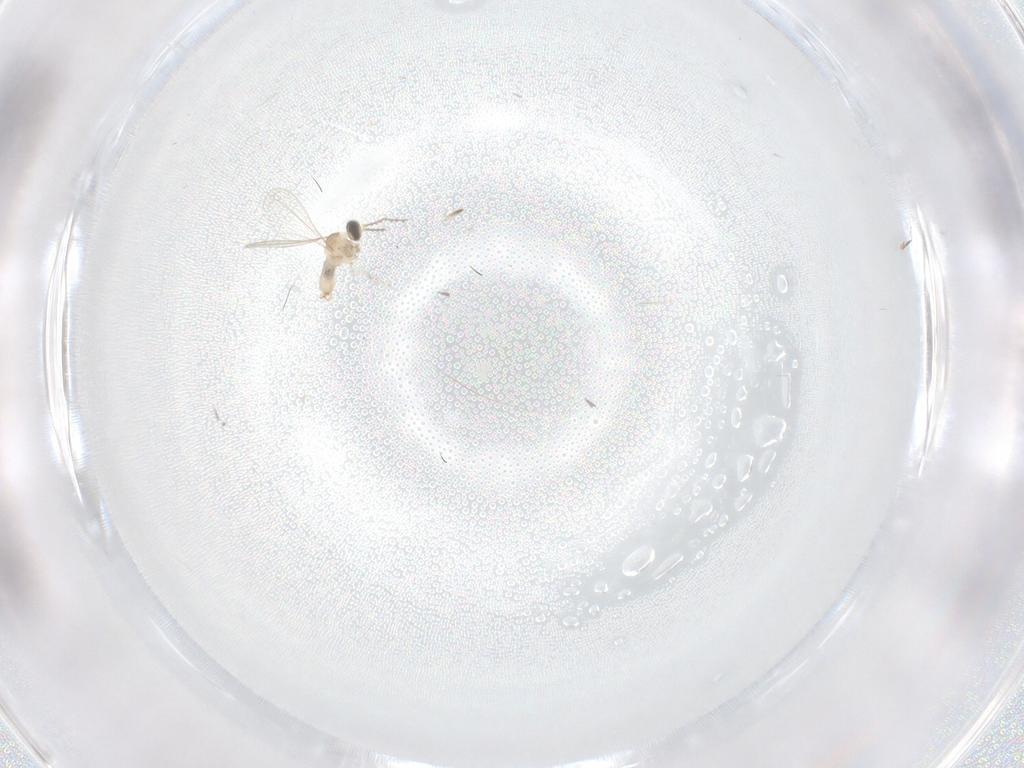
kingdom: Animalia
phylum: Arthropoda
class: Insecta
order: Diptera
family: Cecidomyiidae
